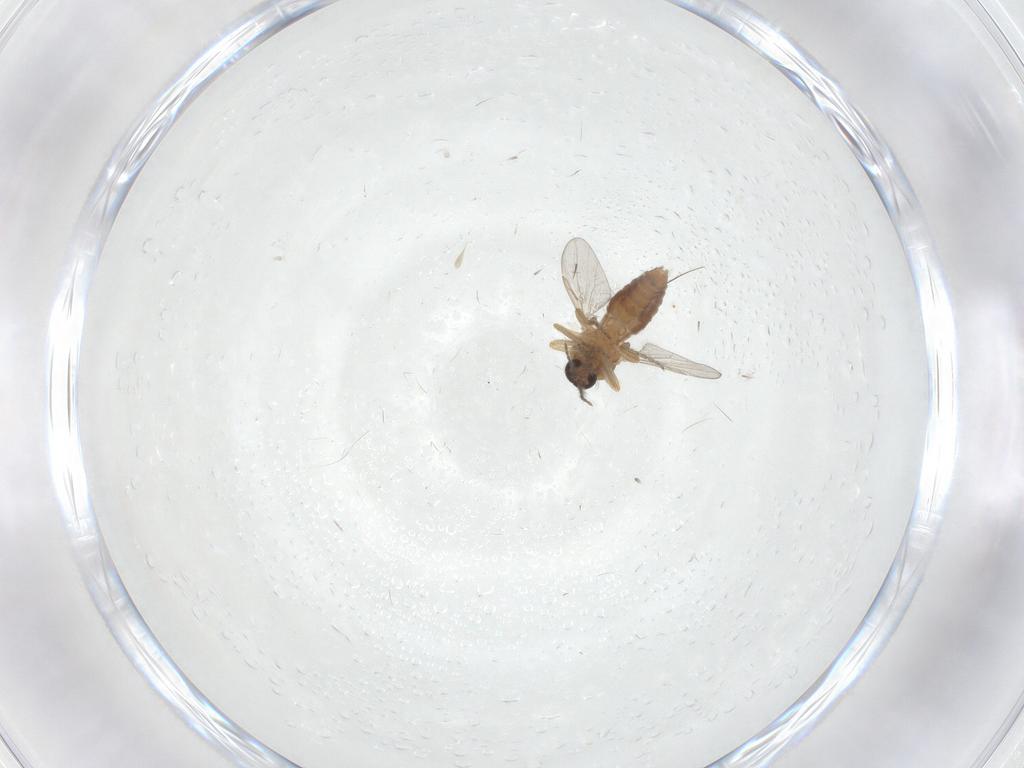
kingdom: Animalia
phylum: Arthropoda
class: Insecta
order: Diptera
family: Ceratopogonidae
